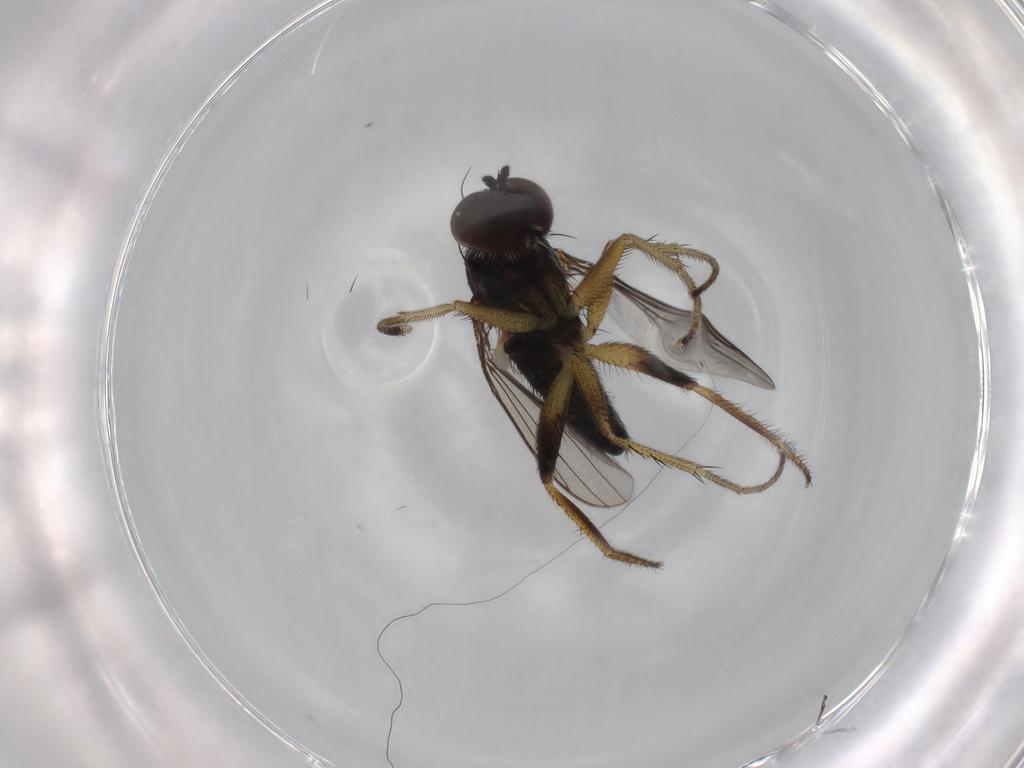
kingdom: Animalia
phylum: Arthropoda
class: Insecta
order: Diptera
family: Dolichopodidae
